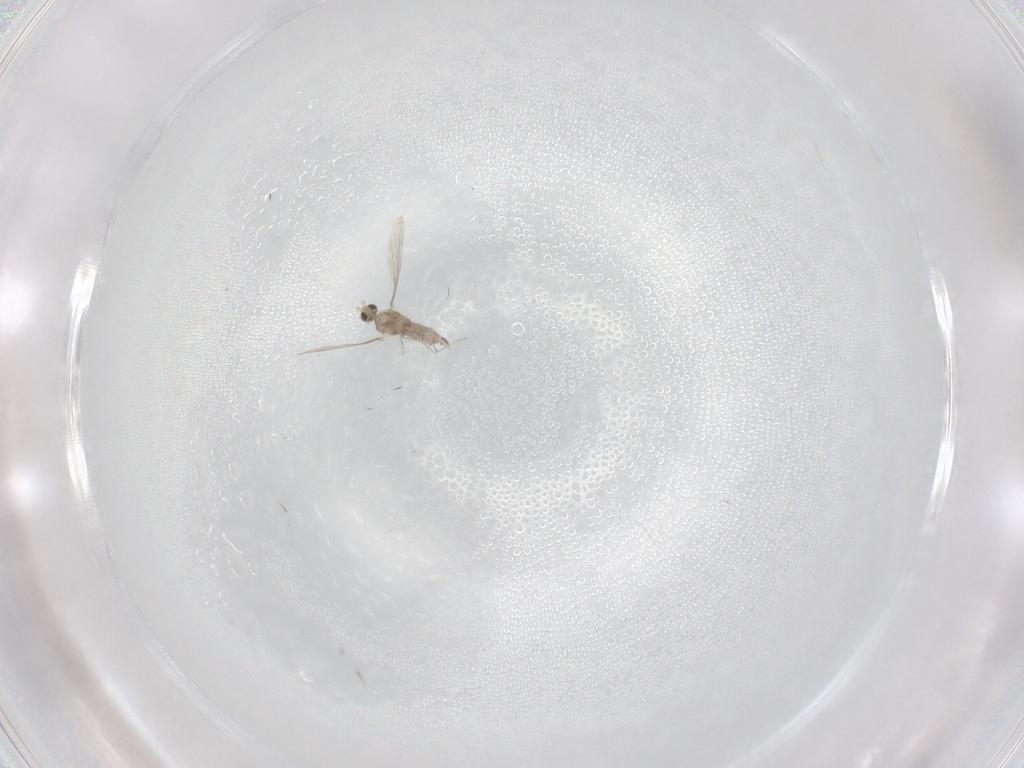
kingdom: Animalia
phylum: Arthropoda
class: Insecta
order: Diptera
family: Cecidomyiidae
